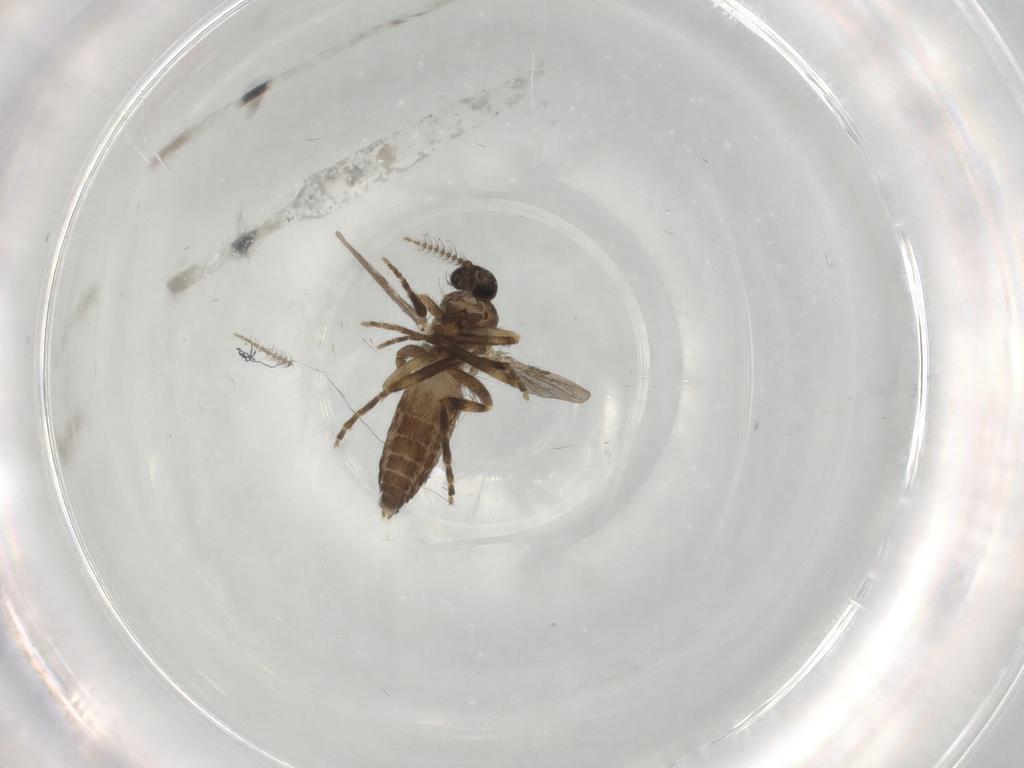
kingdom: Animalia
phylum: Arthropoda
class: Insecta
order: Diptera
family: Ceratopogonidae
